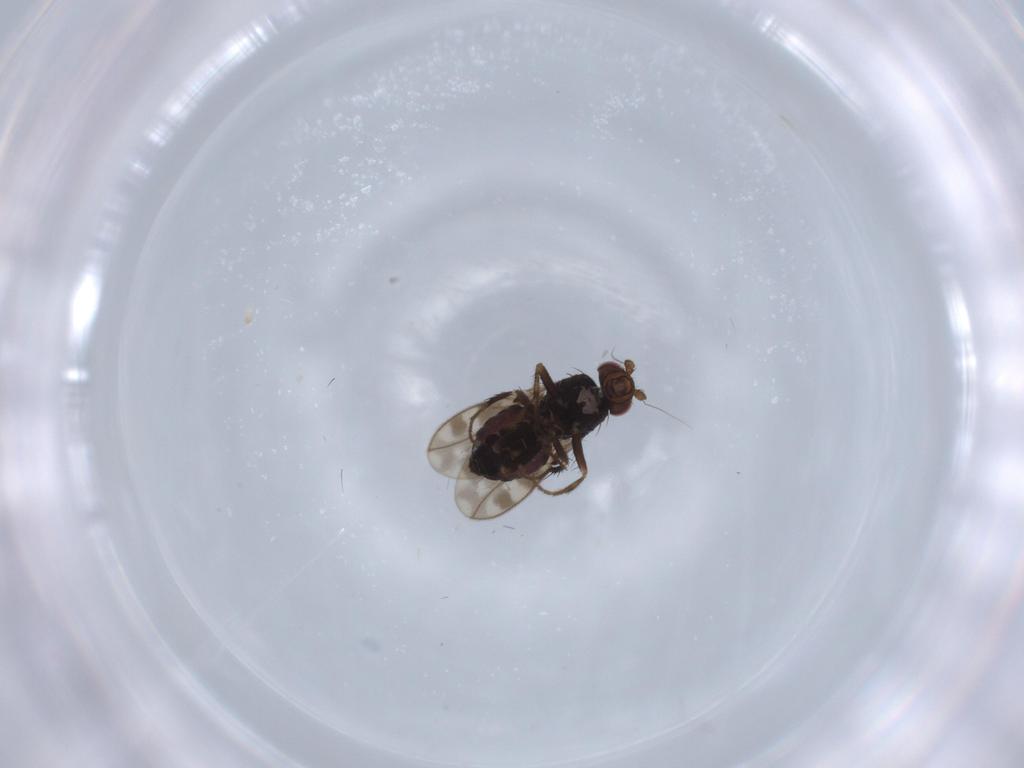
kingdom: Animalia
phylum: Arthropoda
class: Insecta
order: Diptera
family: Sphaeroceridae
